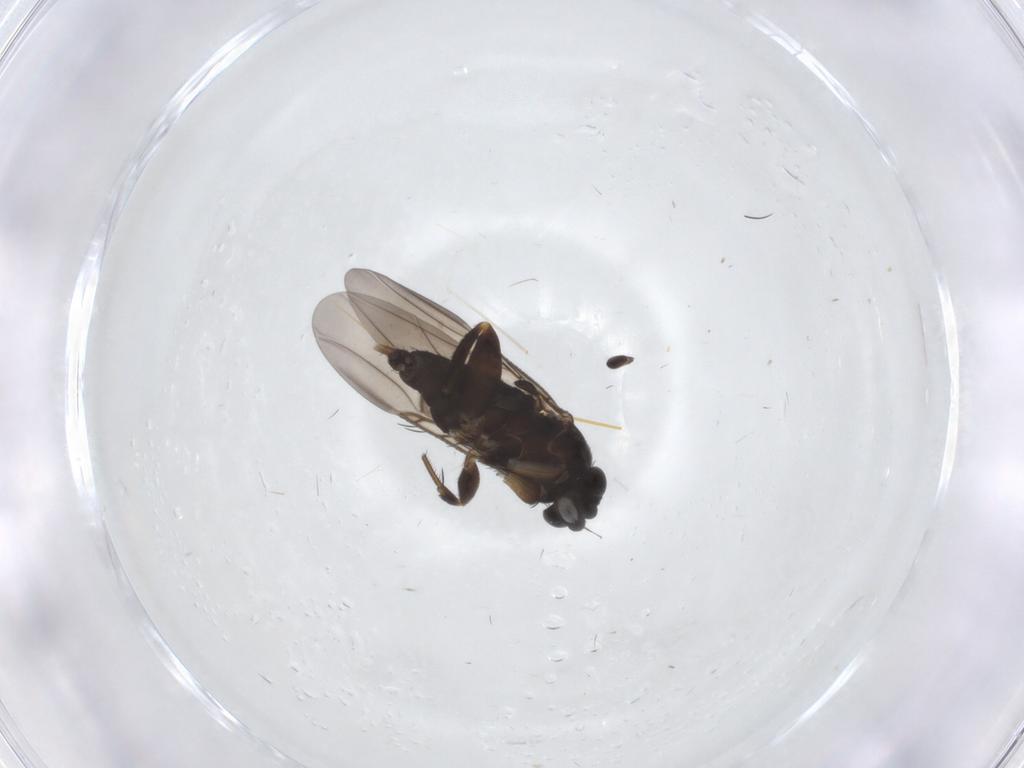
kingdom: Animalia
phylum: Arthropoda
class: Insecta
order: Diptera
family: Phoridae
